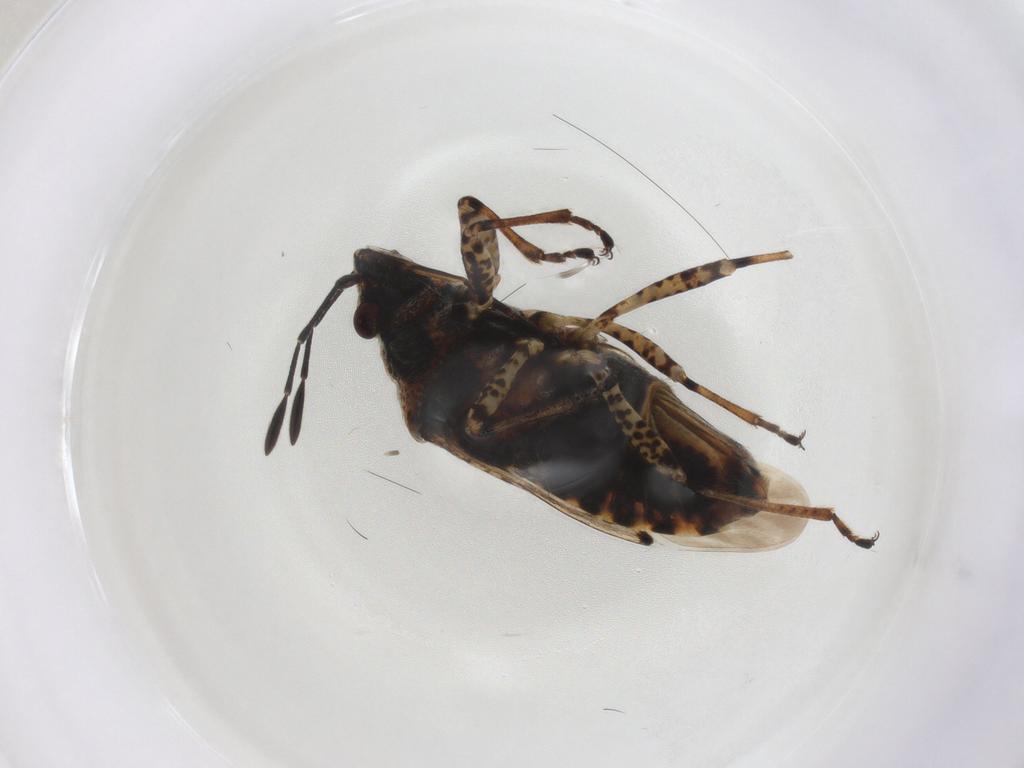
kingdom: Animalia
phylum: Arthropoda
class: Insecta
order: Hemiptera
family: Lygaeidae
